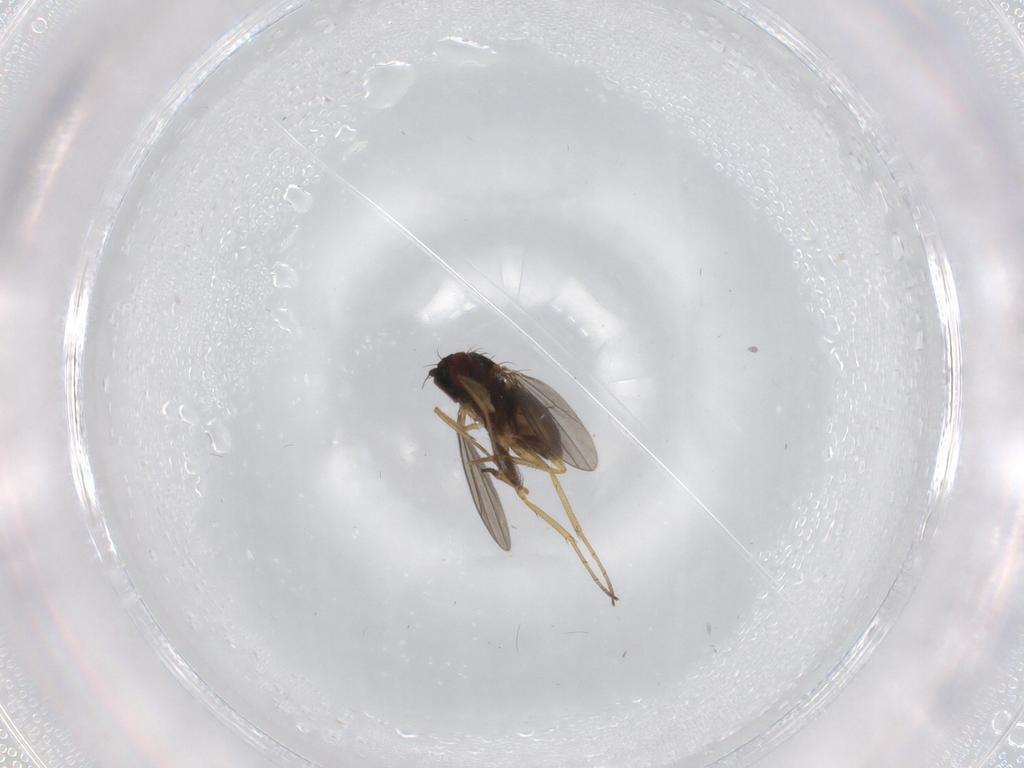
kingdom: Animalia
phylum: Arthropoda
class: Insecta
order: Diptera
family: Dolichopodidae
